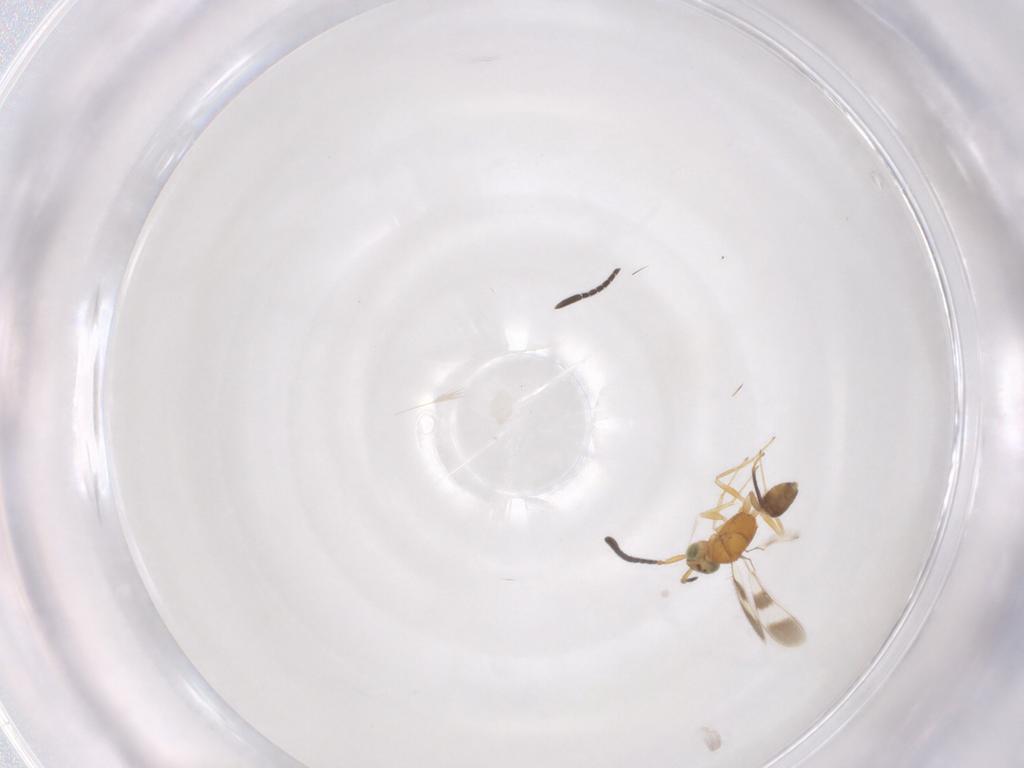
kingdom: Animalia
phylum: Arthropoda
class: Insecta
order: Hymenoptera
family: Mymaridae
